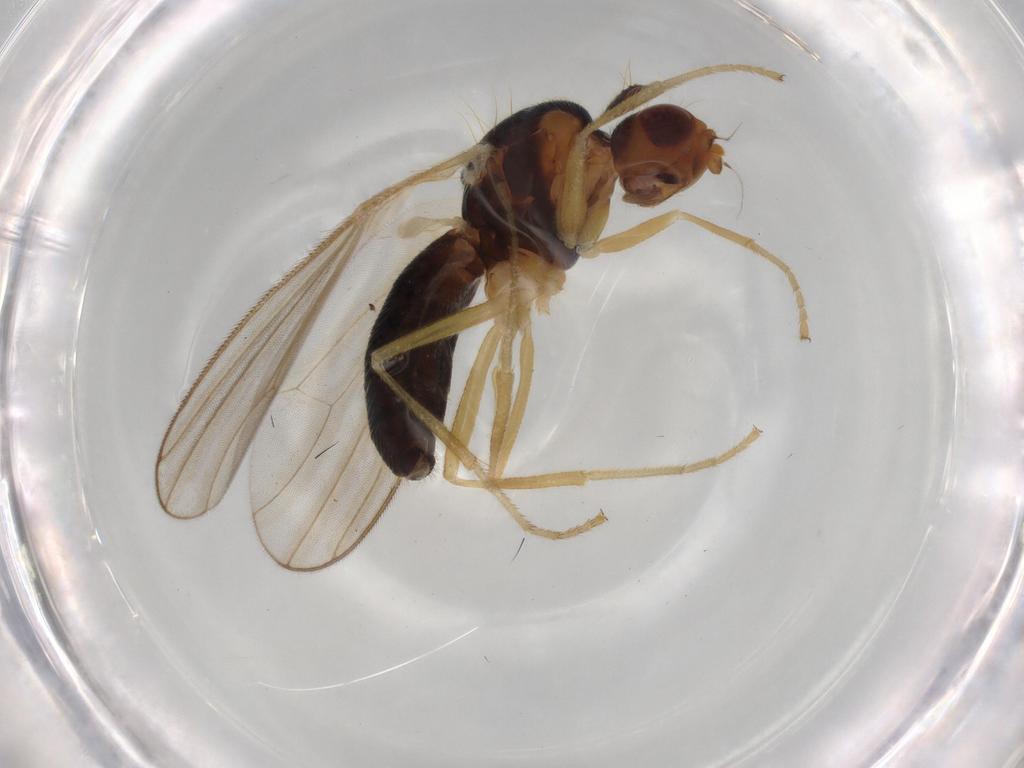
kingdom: Animalia
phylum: Arthropoda
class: Insecta
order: Diptera
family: Psilidae
